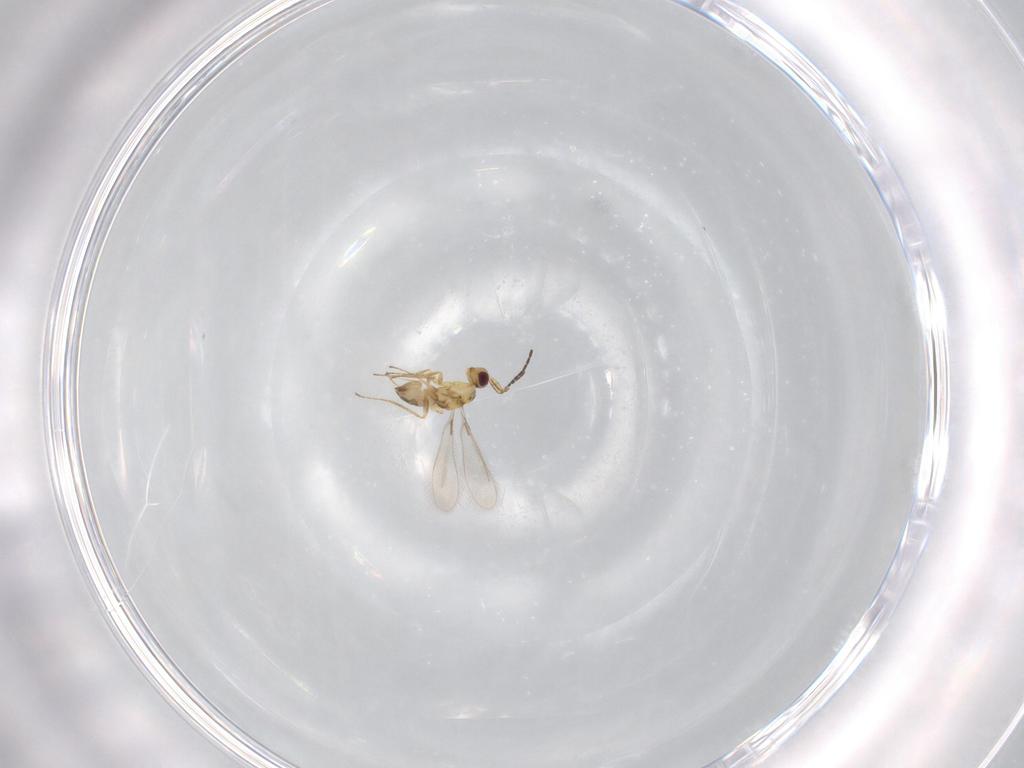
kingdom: Animalia
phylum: Arthropoda
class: Insecta
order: Hymenoptera
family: Mymaridae
